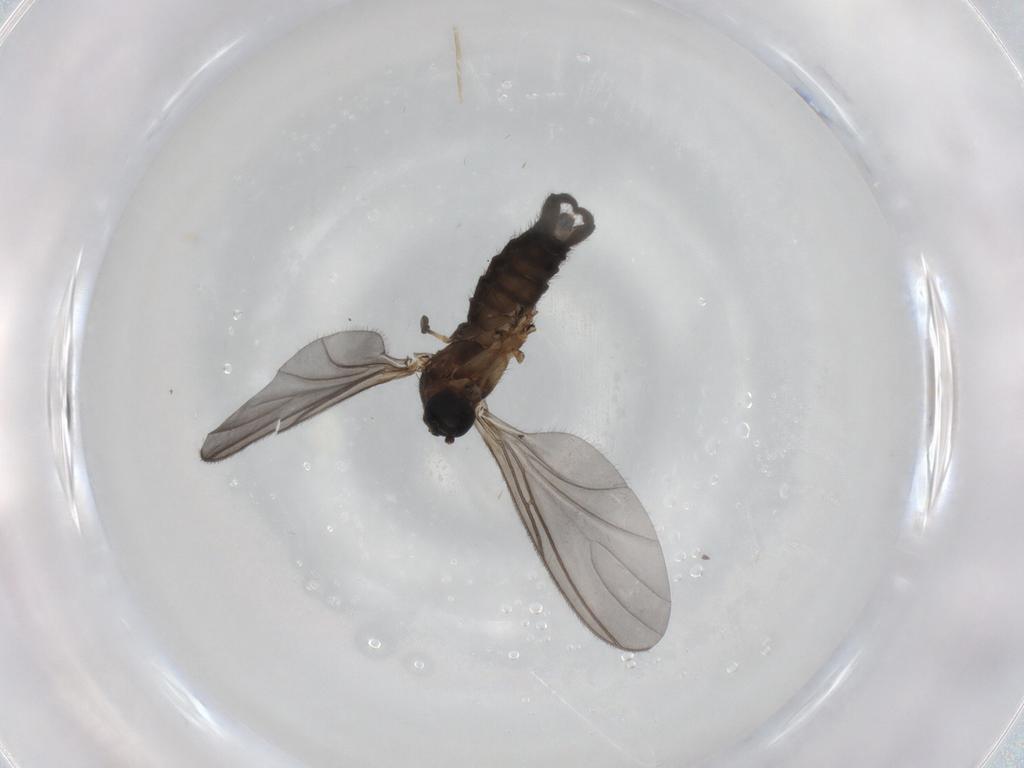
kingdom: Animalia
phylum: Arthropoda
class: Insecta
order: Diptera
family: Sciaridae
